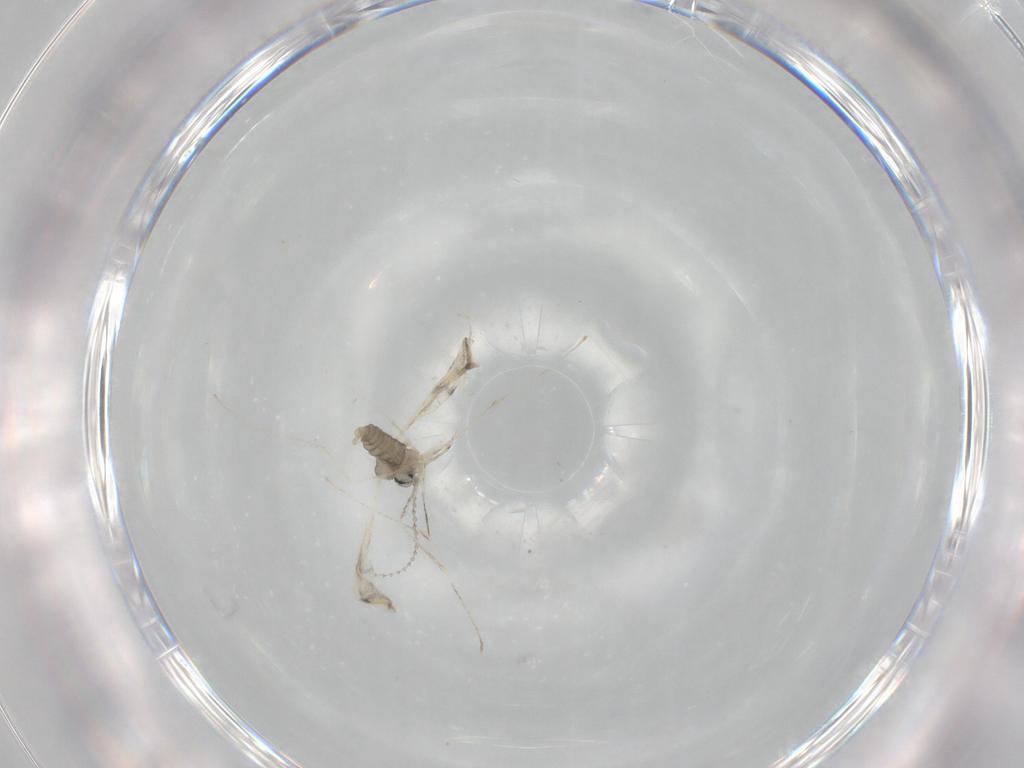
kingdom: Animalia
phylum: Arthropoda
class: Insecta
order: Diptera
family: Cecidomyiidae
